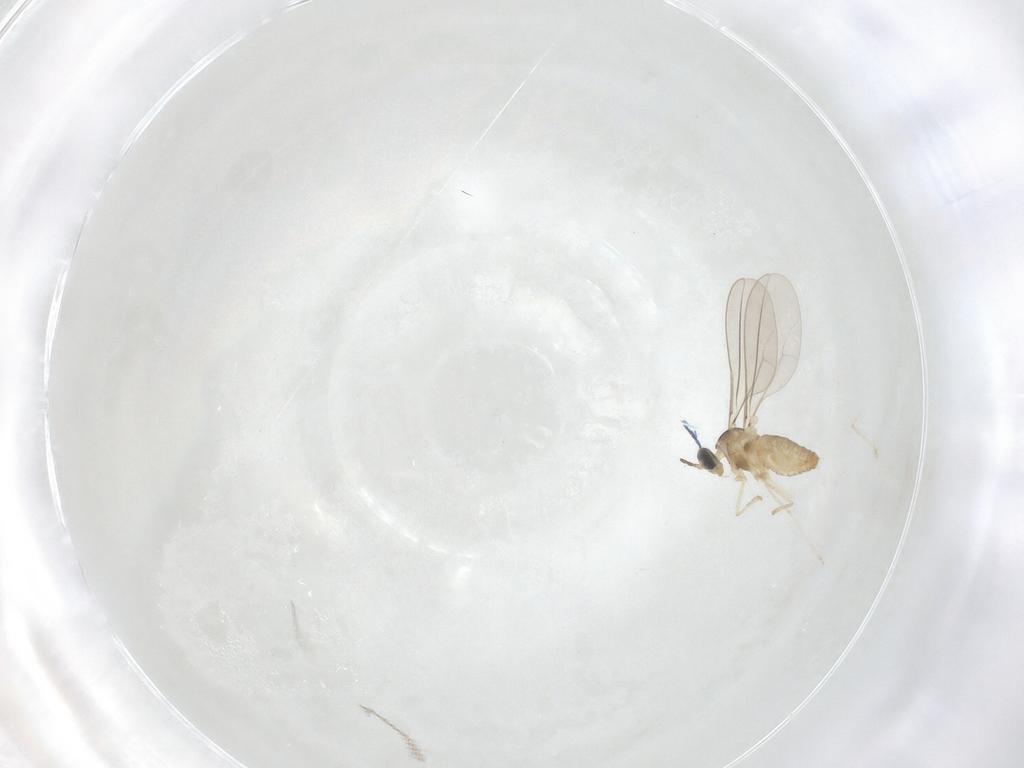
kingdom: Animalia
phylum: Arthropoda
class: Insecta
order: Diptera
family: Cecidomyiidae
